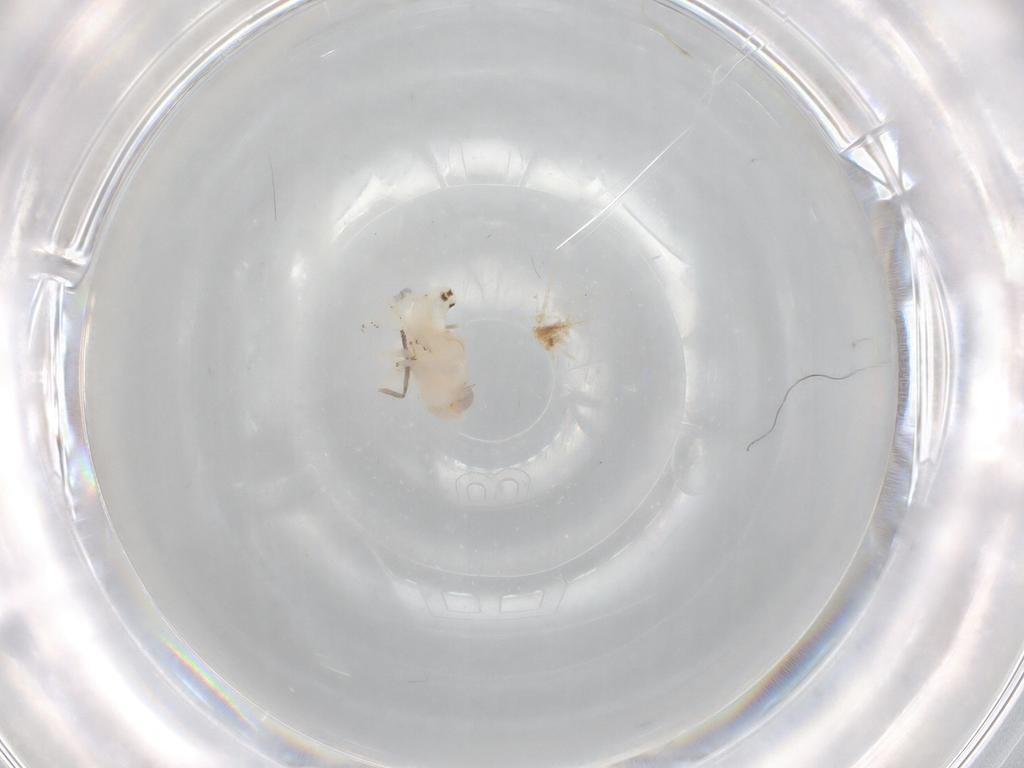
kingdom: Animalia
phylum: Arthropoda
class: Insecta
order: Hemiptera
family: Nogodinidae
